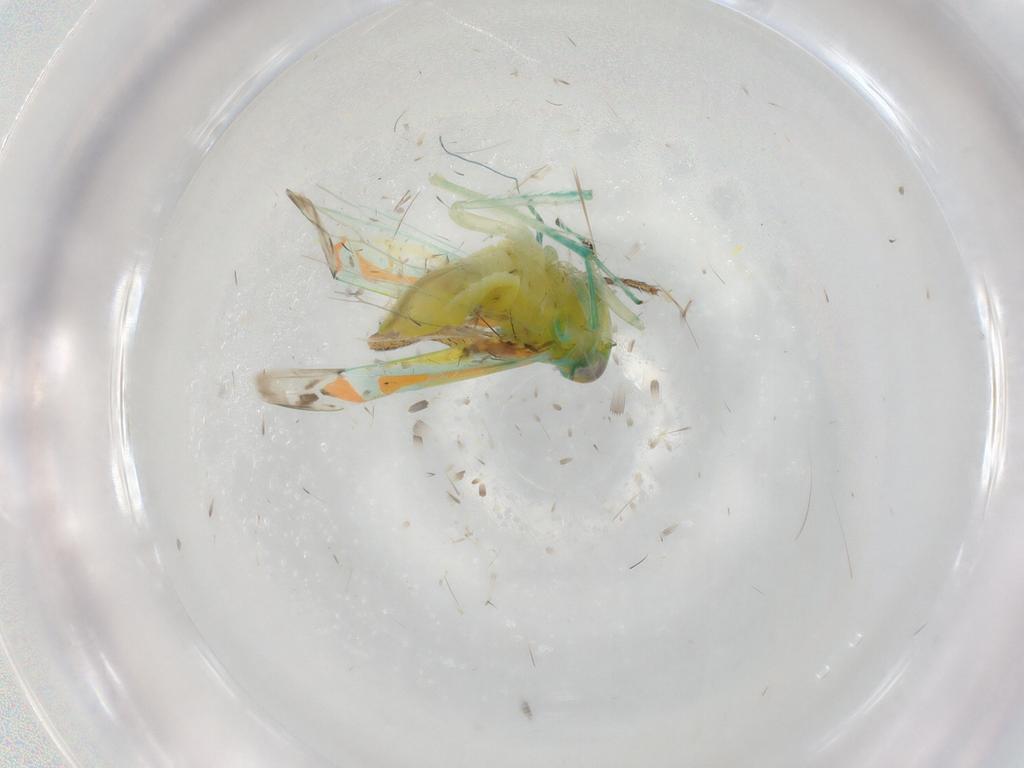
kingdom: Animalia
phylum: Arthropoda
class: Insecta
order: Hemiptera
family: Cicadellidae
